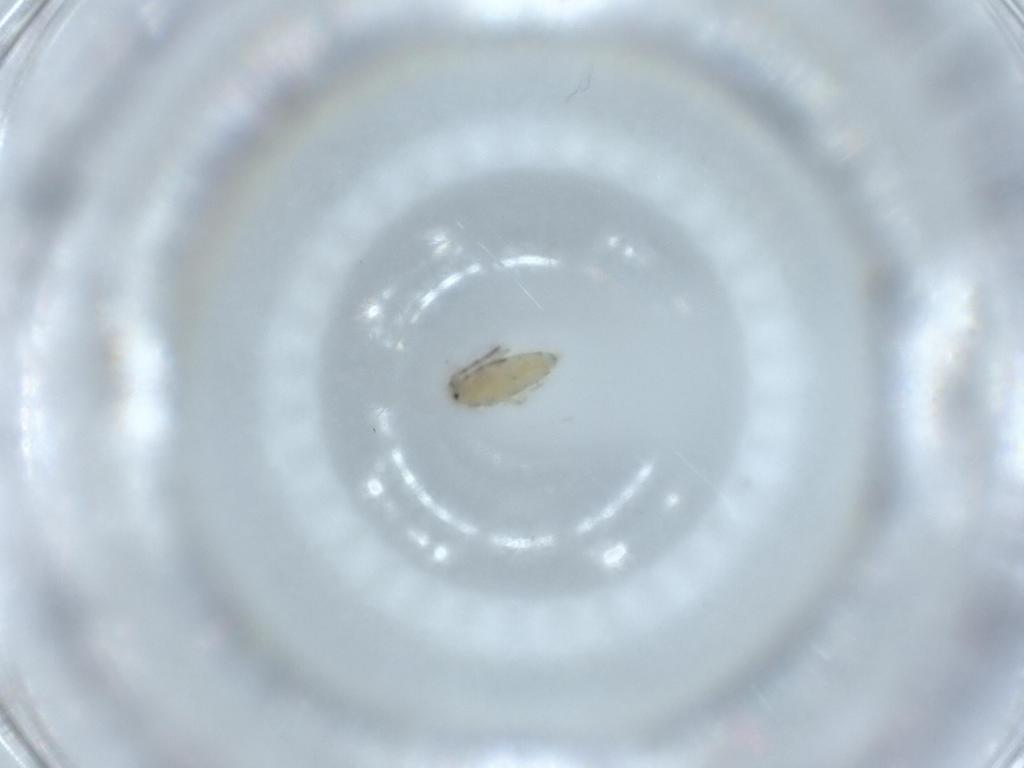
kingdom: Animalia
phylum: Arthropoda
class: Collembola
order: Entomobryomorpha
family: Entomobryidae
